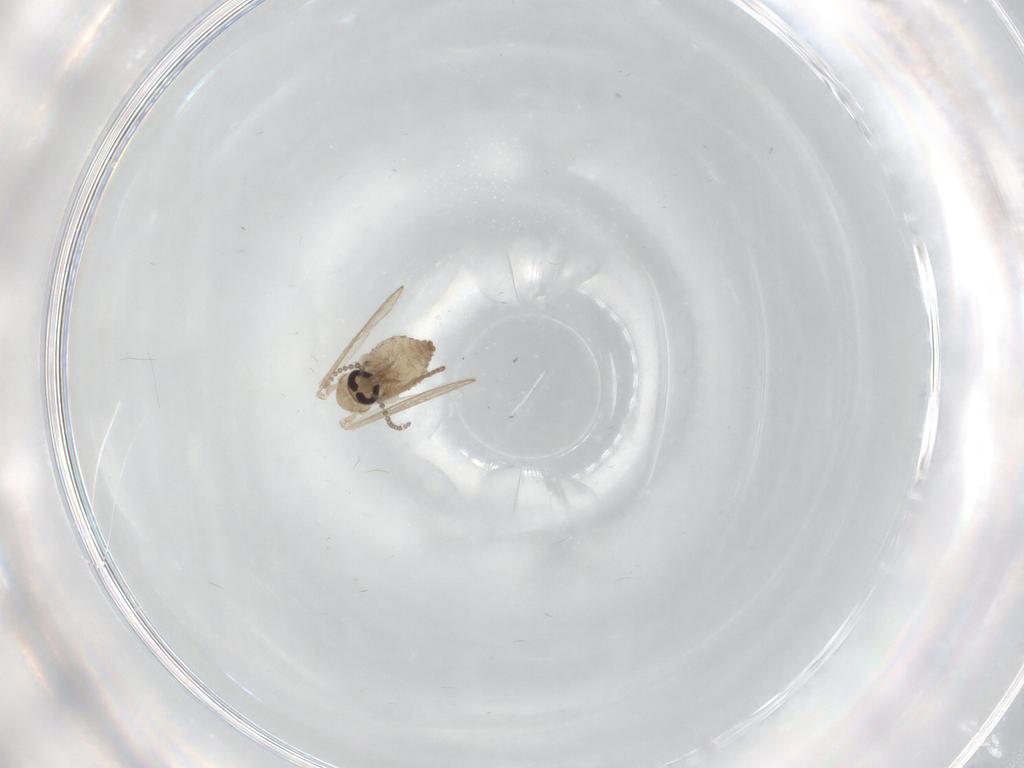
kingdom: Animalia
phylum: Arthropoda
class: Insecta
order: Diptera
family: Psychodidae
